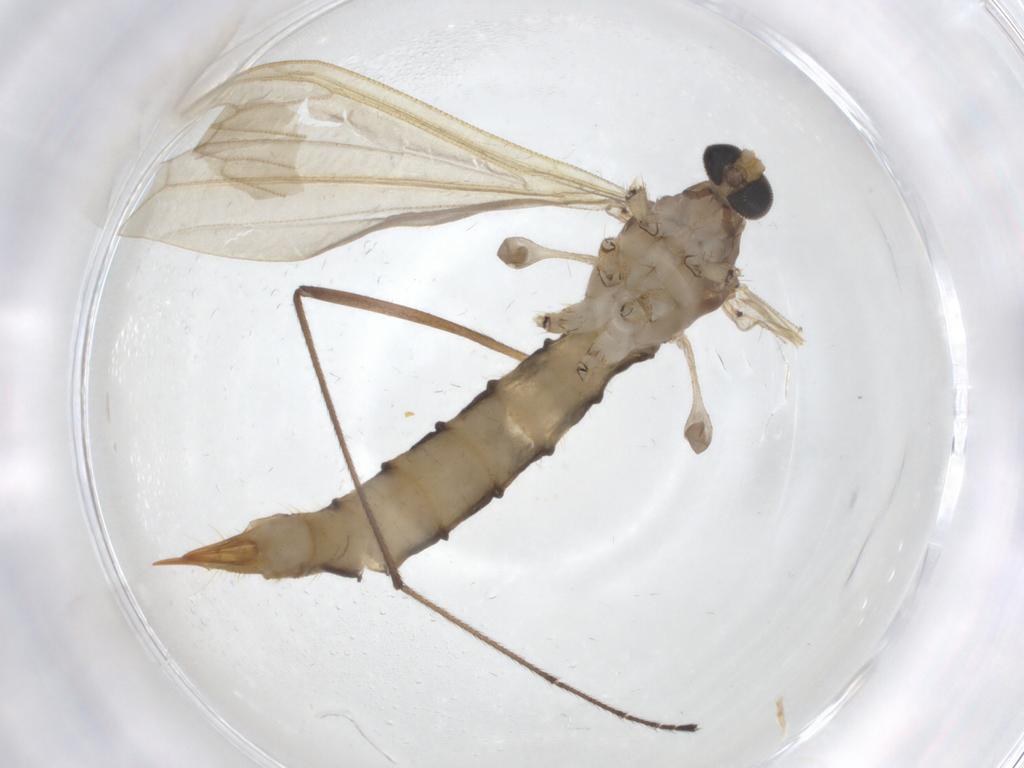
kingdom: Animalia
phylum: Arthropoda
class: Insecta
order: Diptera
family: Limoniidae
